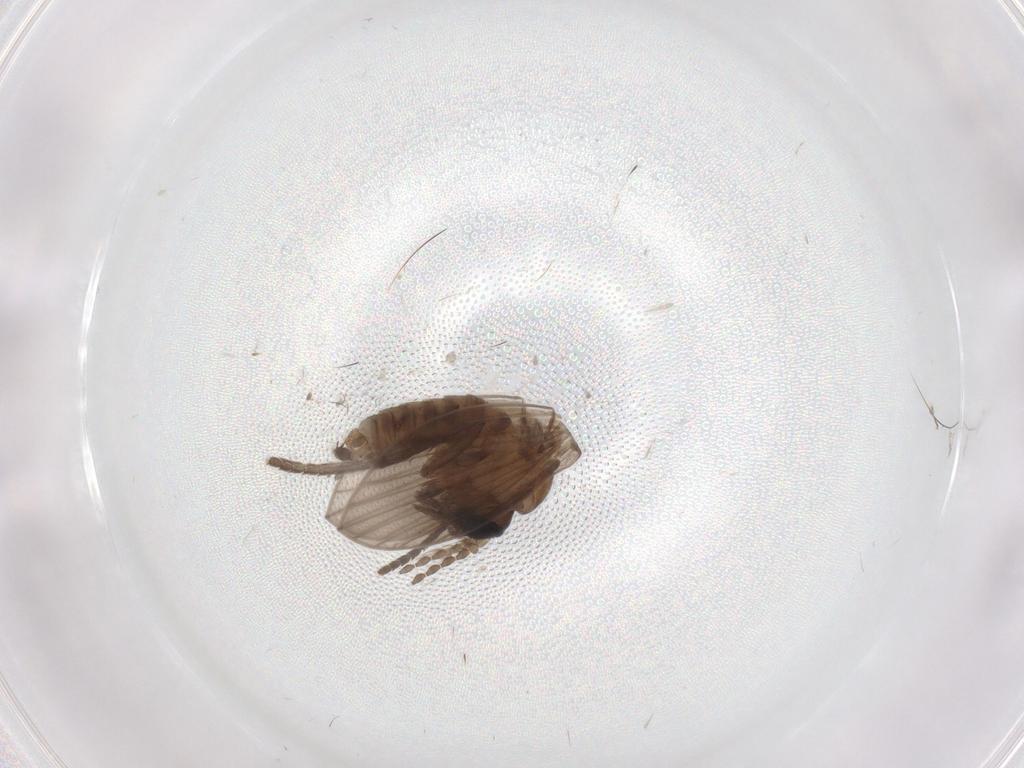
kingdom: Animalia
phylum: Arthropoda
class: Insecta
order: Diptera
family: Psychodidae
